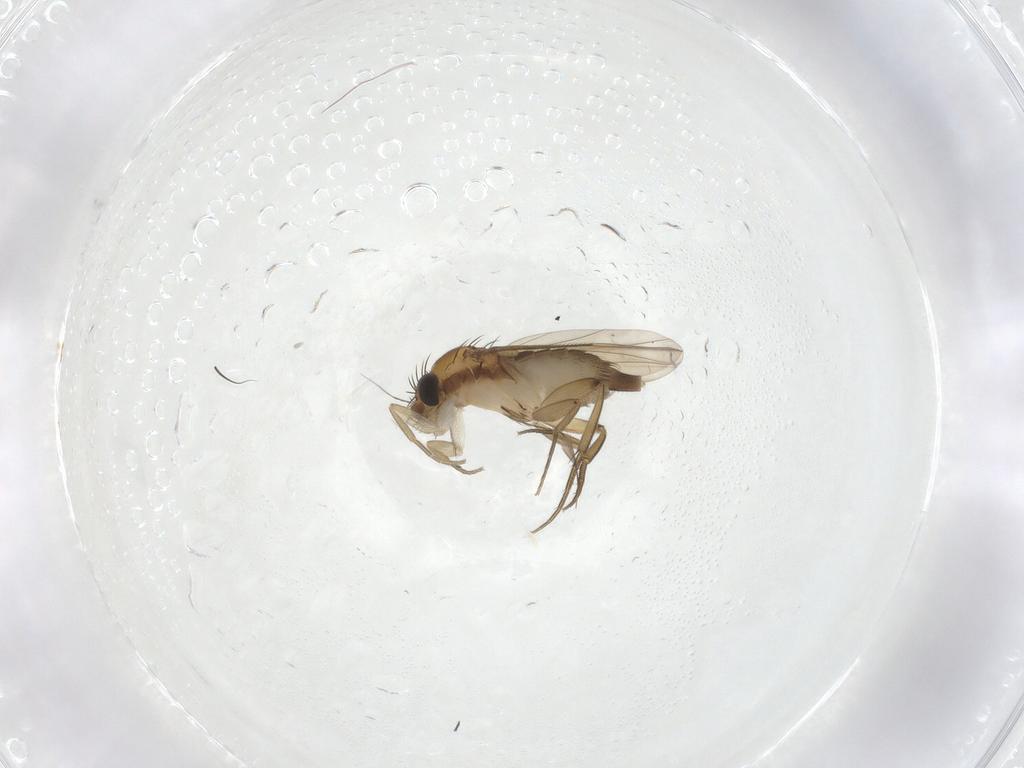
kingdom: Animalia
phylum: Arthropoda
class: Insecta
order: Diptera
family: Phoridae
